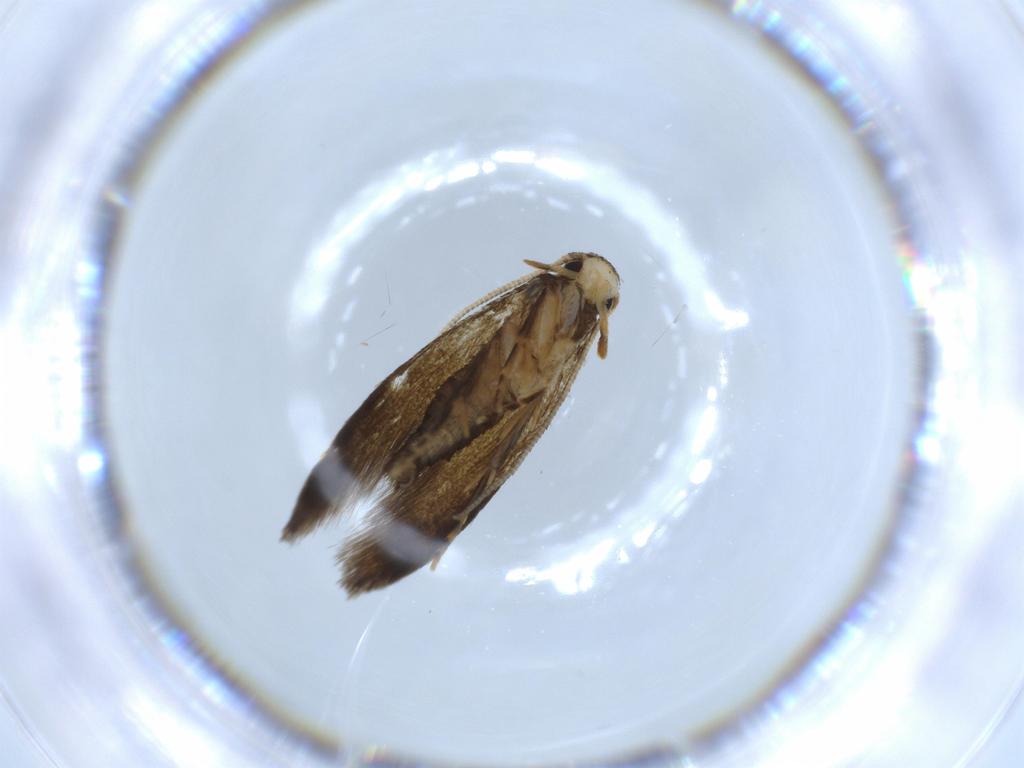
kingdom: Animalia
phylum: Arthropoda
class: Insecta
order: Lepidoptera
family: Tineidae
